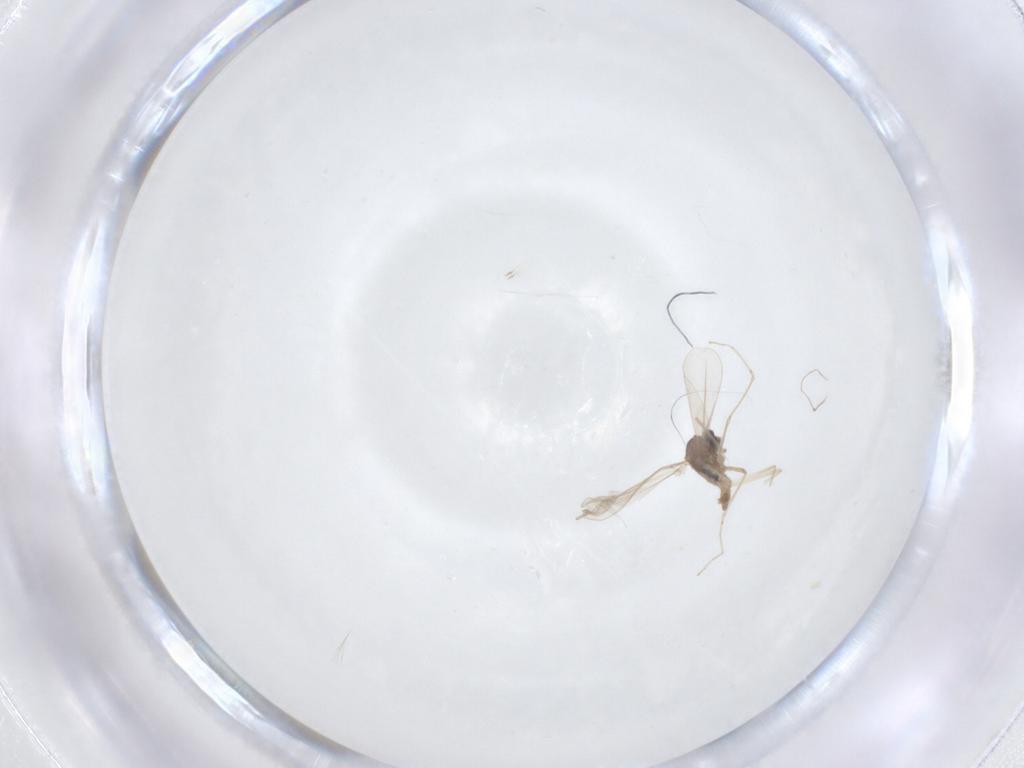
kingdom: Animalia
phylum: Arthropoda
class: Insecta
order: Diptera
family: Cecidomyiidae
